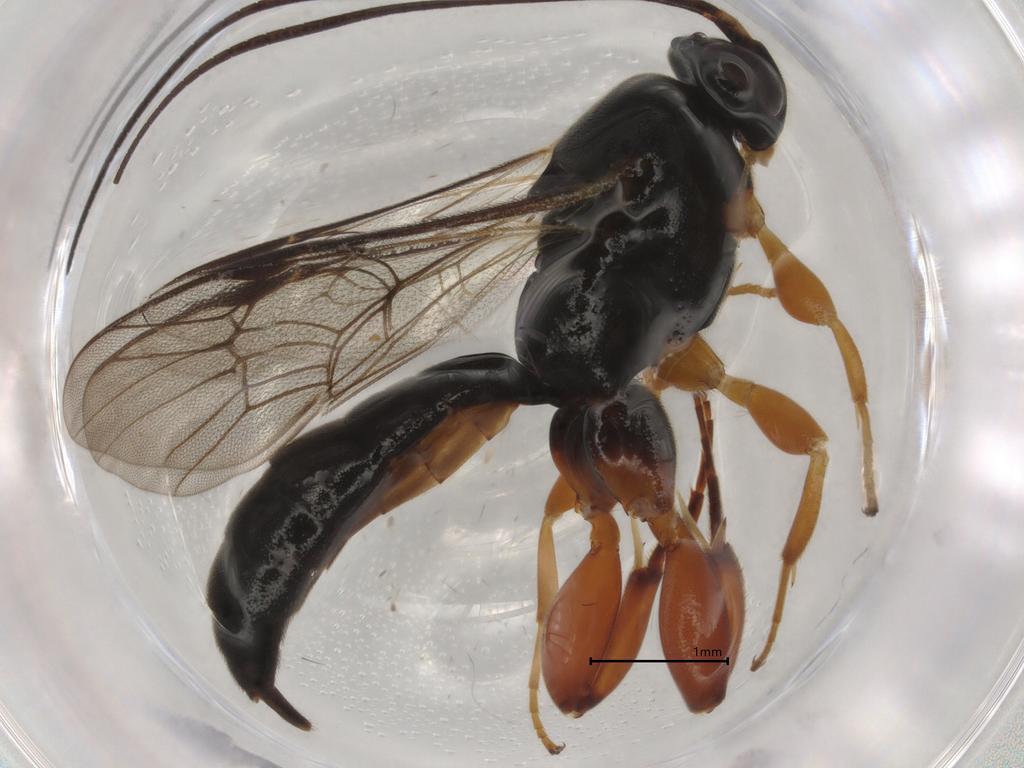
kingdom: Animalia
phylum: Arthropoda
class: Insecta
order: Hymenoptera
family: Ichneumonidae
